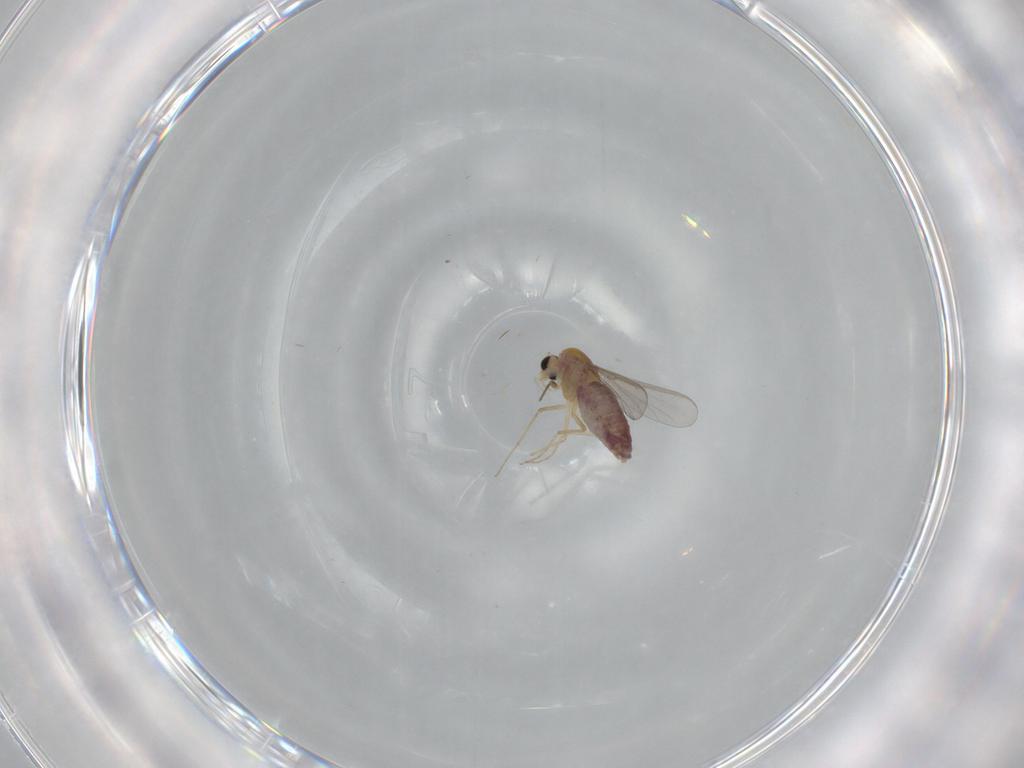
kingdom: Animalia
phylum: Arthropoda
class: Insecta
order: Diptera
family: Chironomidae
